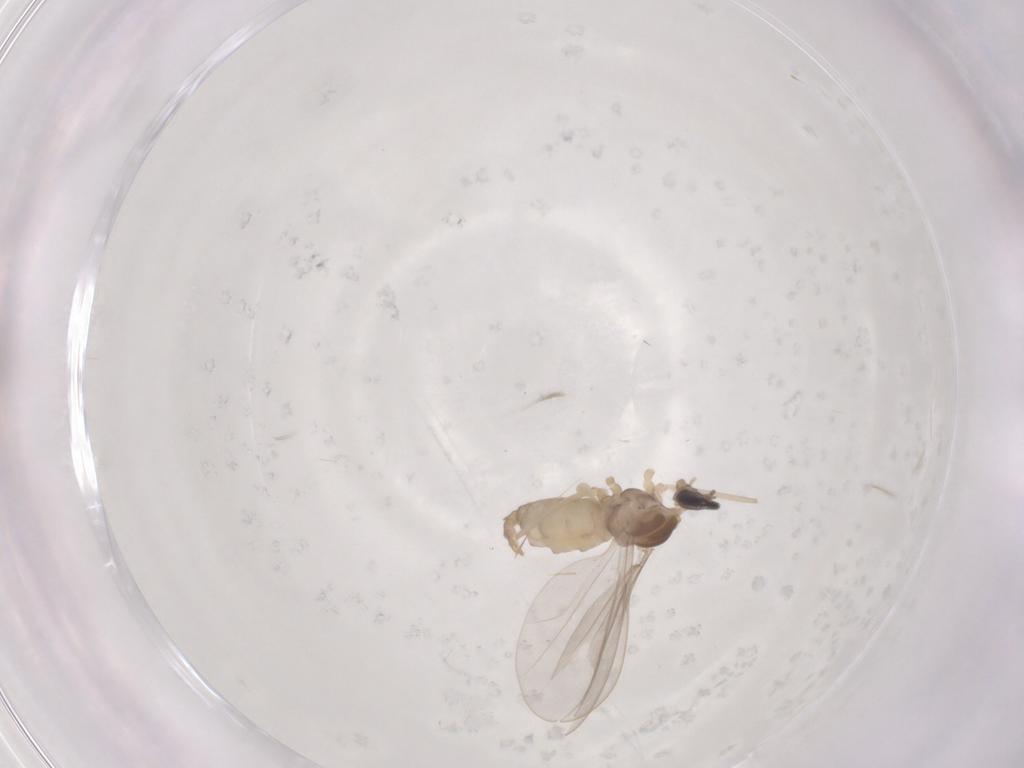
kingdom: Animalia
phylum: Arthropoda
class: Insecta
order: Diptera
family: Cecidomyiidae
